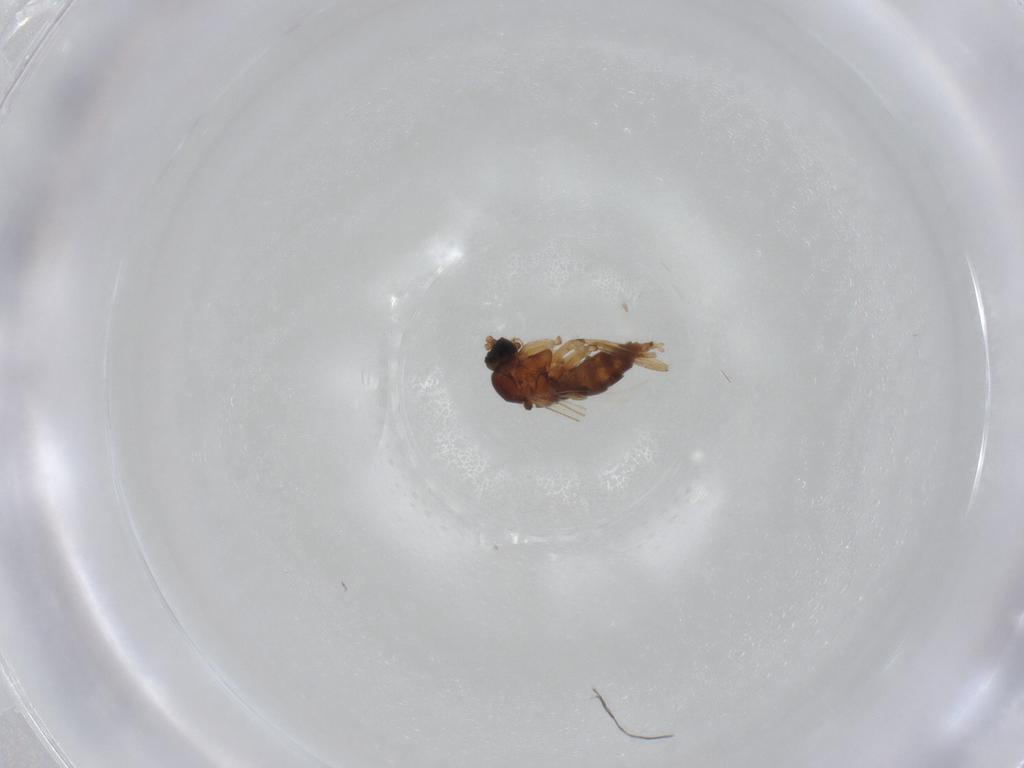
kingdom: Animalia
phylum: Arthropoda
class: Insecta
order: Diptera
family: Sciaridae
